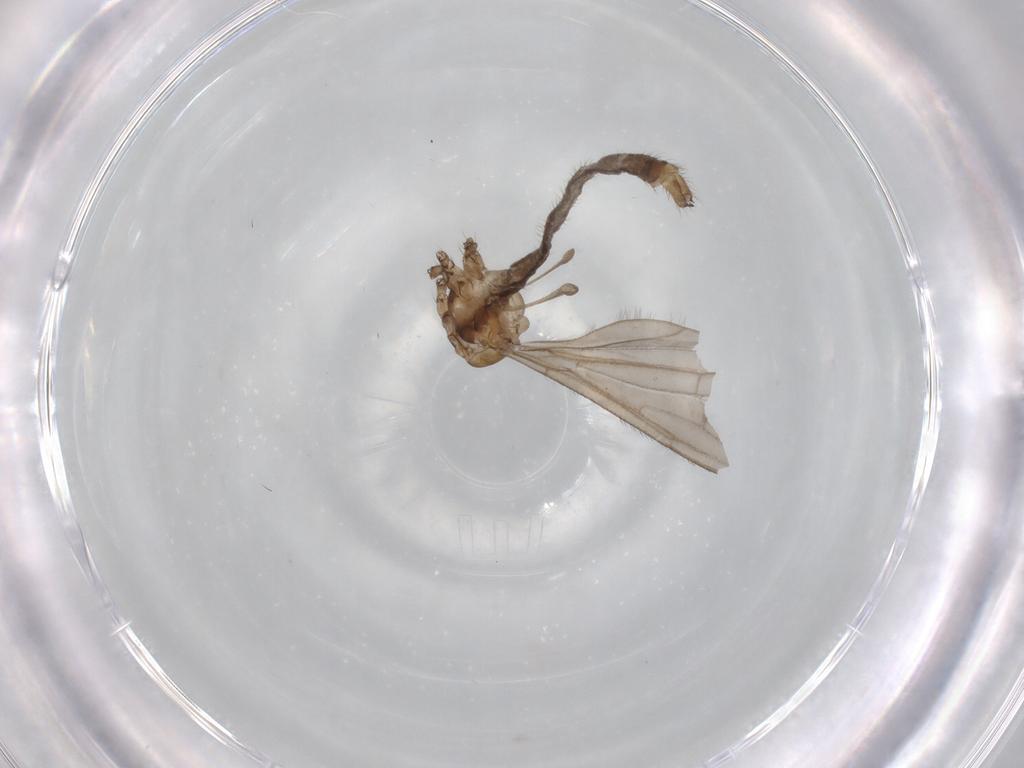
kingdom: Animalia
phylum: Arthropoda
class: Insecta
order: Diptera
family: Limoniidae
